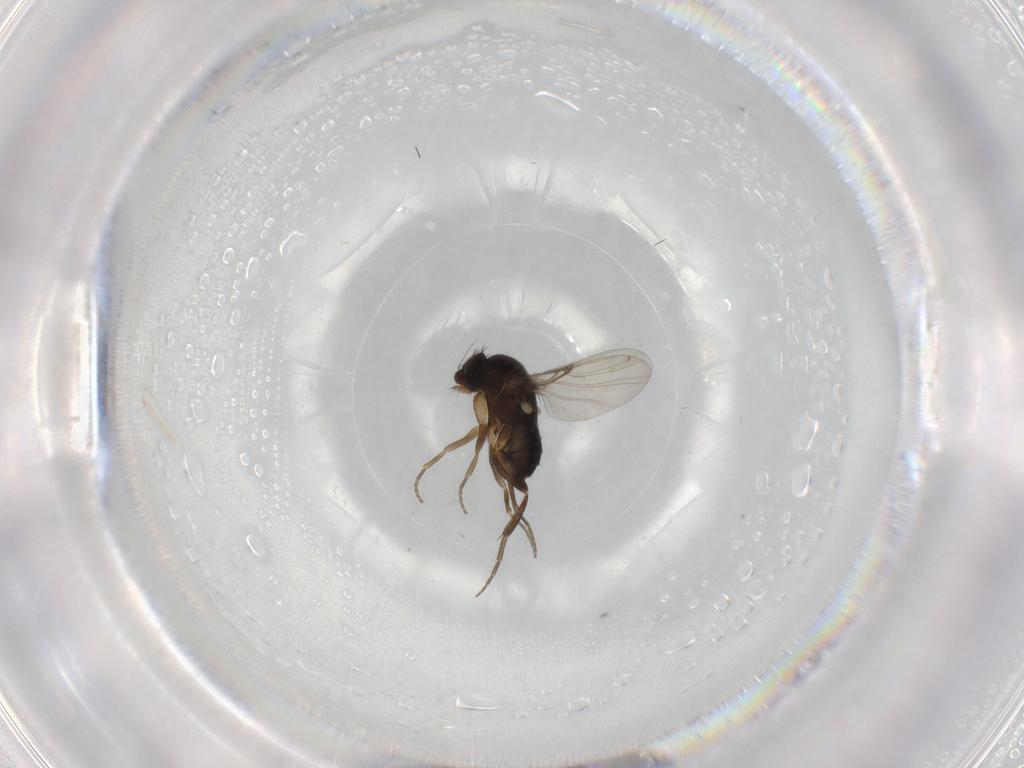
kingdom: Animalia
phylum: Arthropoda
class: Insecta
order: Diptera
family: Phoridae
